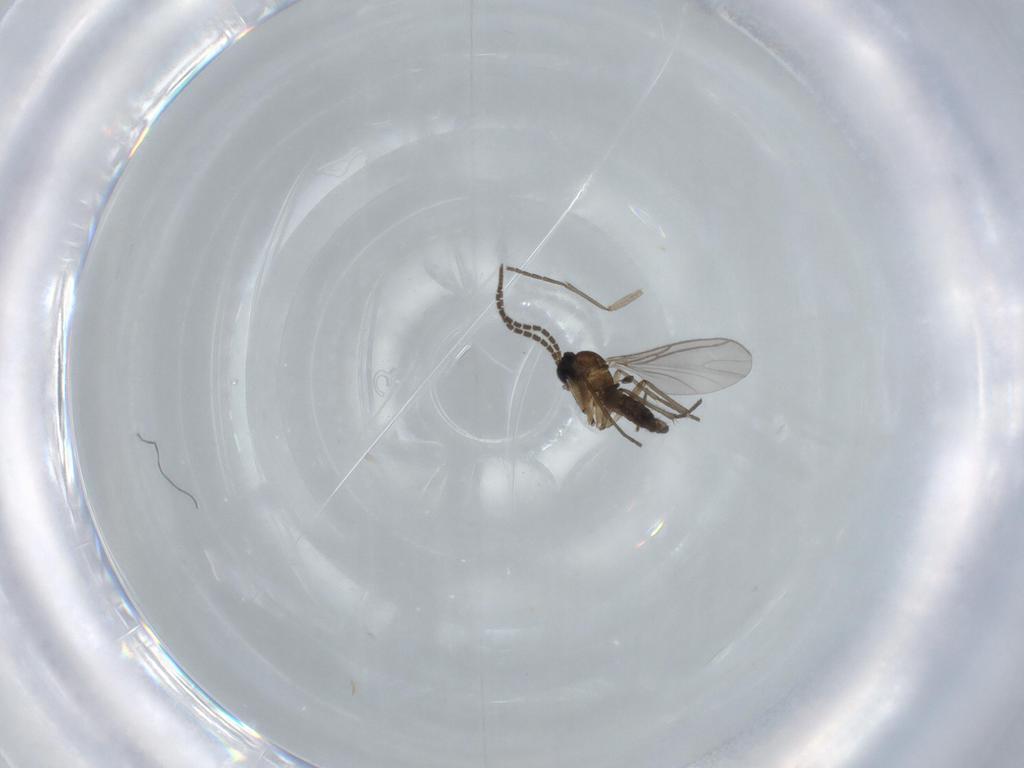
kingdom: Animalia
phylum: Arthropoda
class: Insecta
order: Diptera
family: Sciaridae
